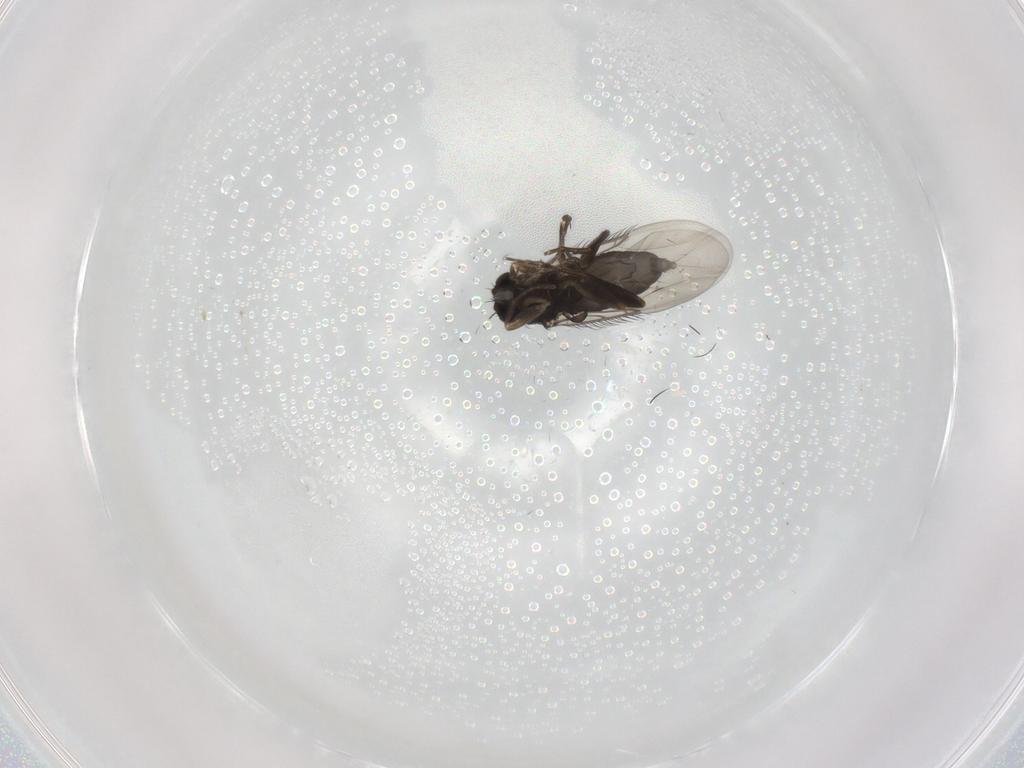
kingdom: Animalia
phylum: Arthropoda
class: Insecta
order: Diptera
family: Phoridae
